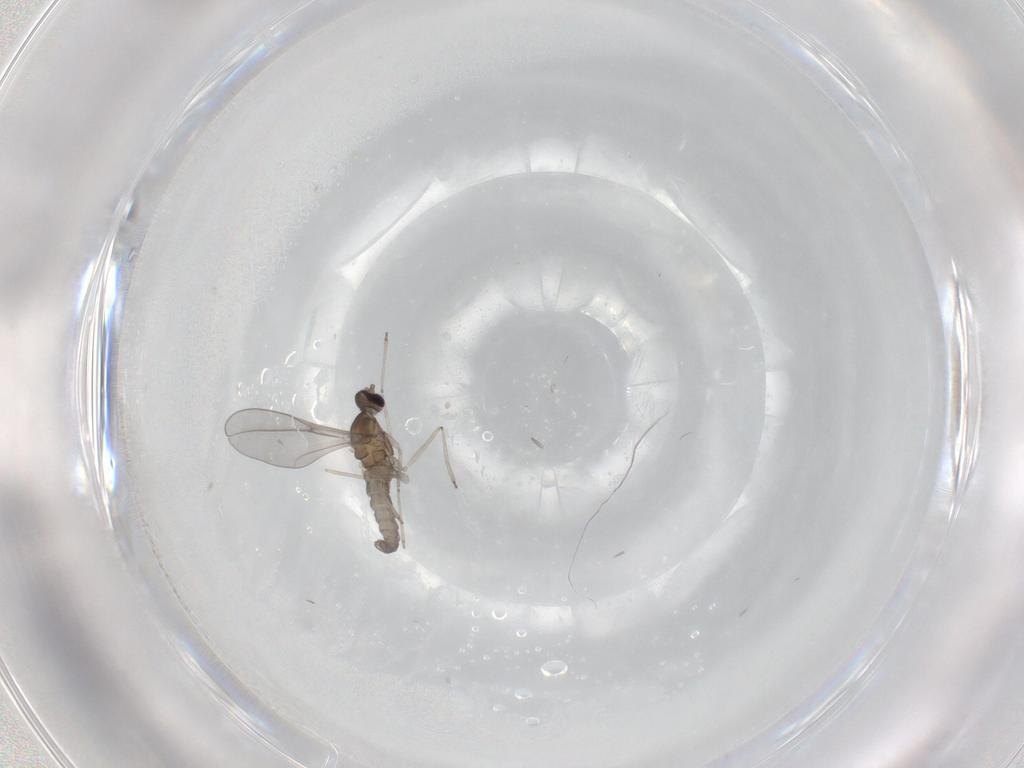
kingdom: Animalia
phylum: Arthropoda
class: Insecta
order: Diptera
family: Cecidomyiidae
